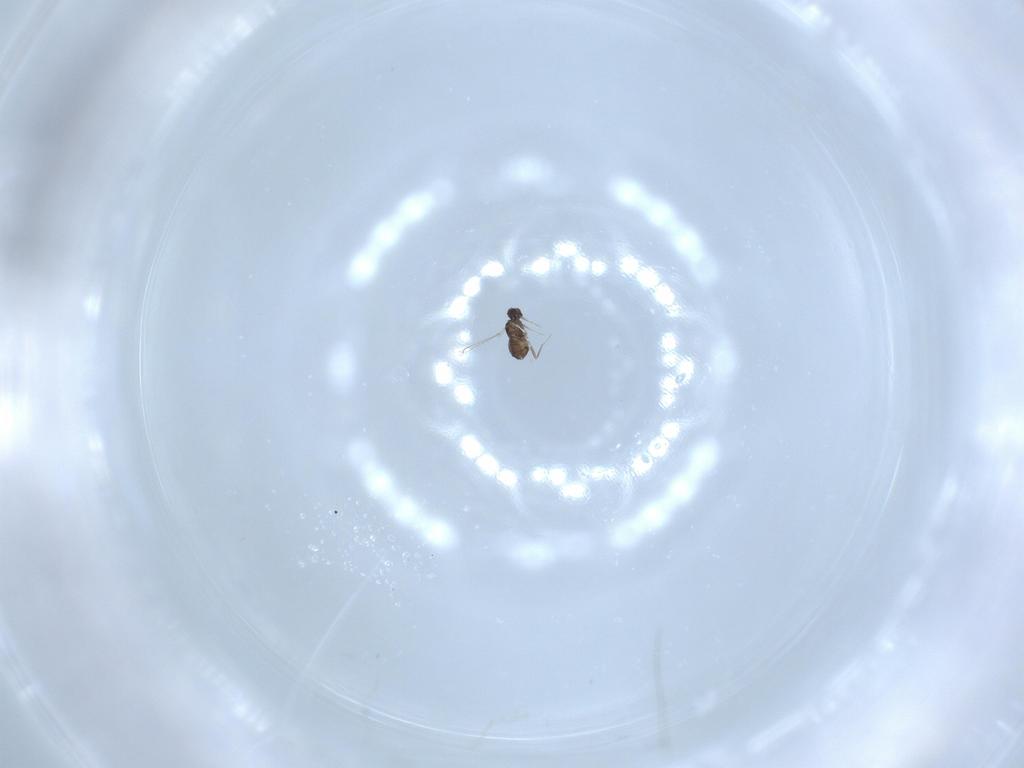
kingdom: Animalia
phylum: Arthropoda
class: Insecta
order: Hymenoptera
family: Mymaridae
